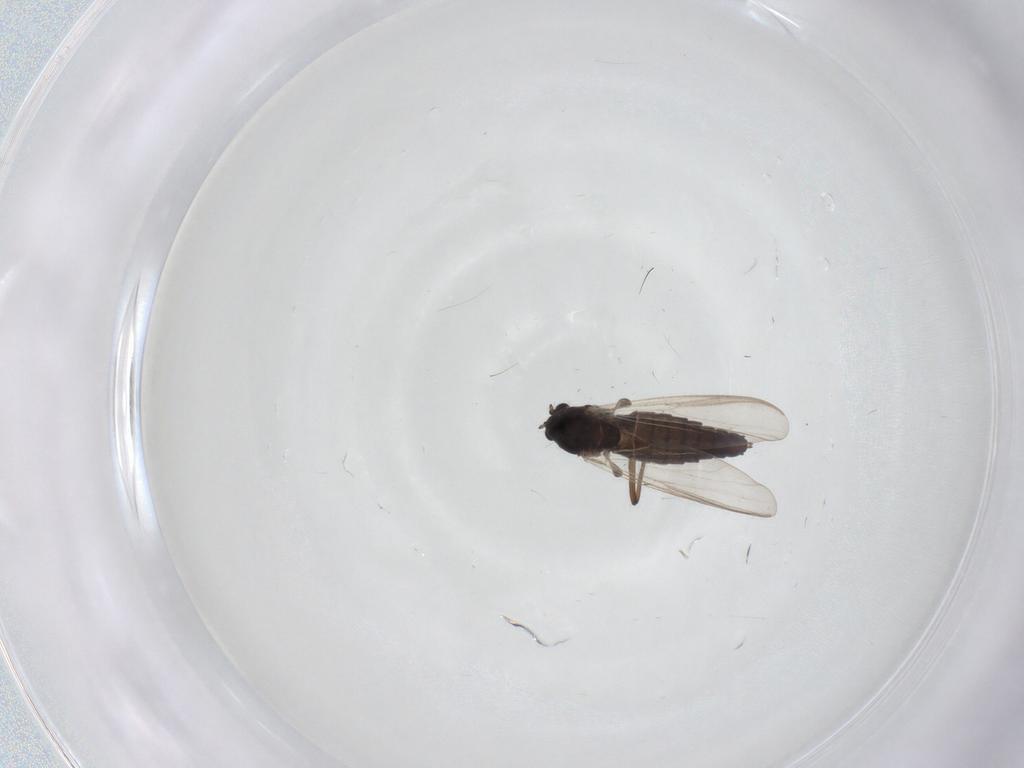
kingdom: Animalia
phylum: Arthropoda
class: Insecta
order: Diptera
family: Chironomidae
